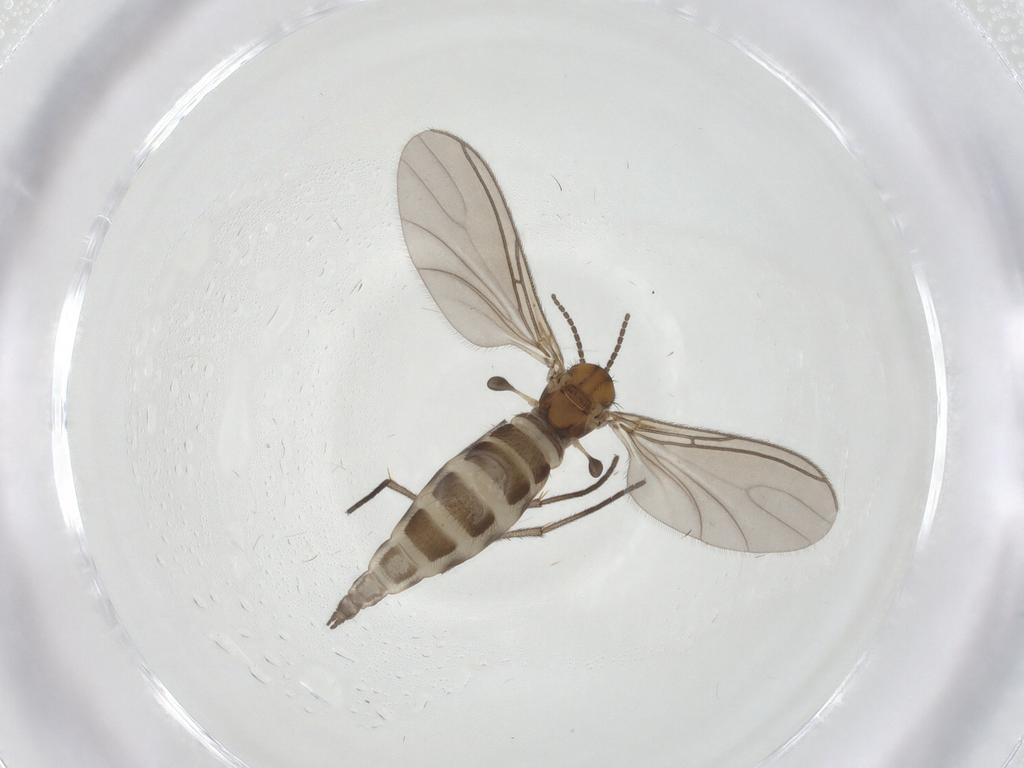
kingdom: Animalia
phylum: Arthropoda
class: Insecta
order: Diptera
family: Sciaridae
